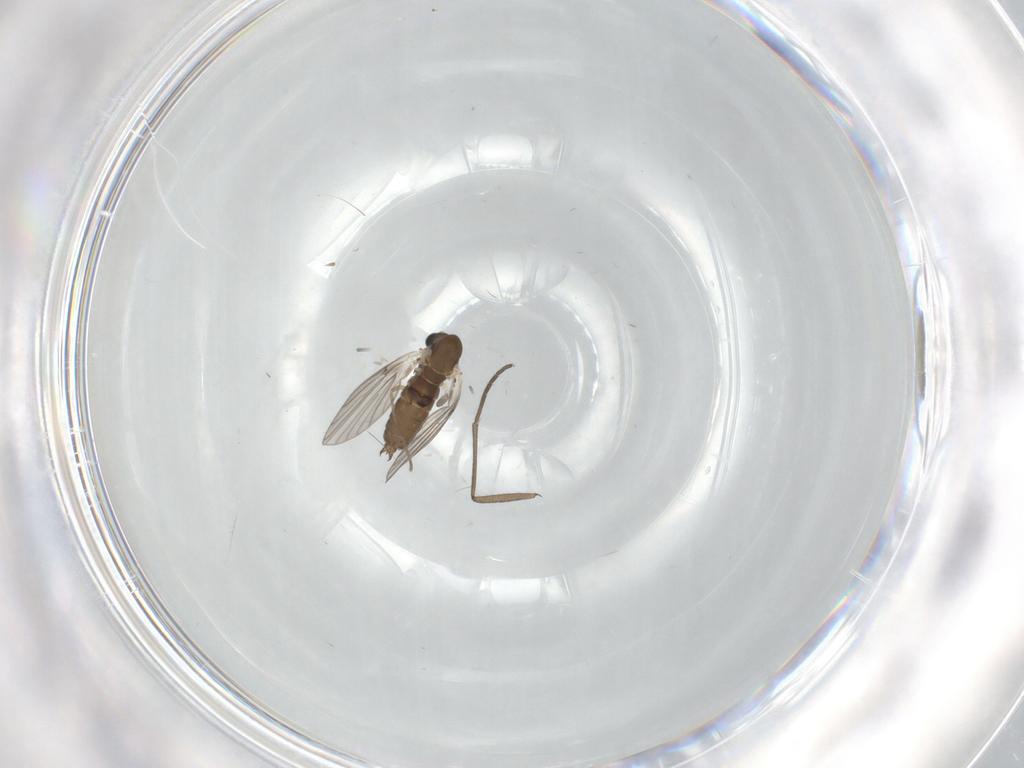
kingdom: Animalia
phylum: Arthropoda
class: Insecta
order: Diptera
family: Sciaridae
